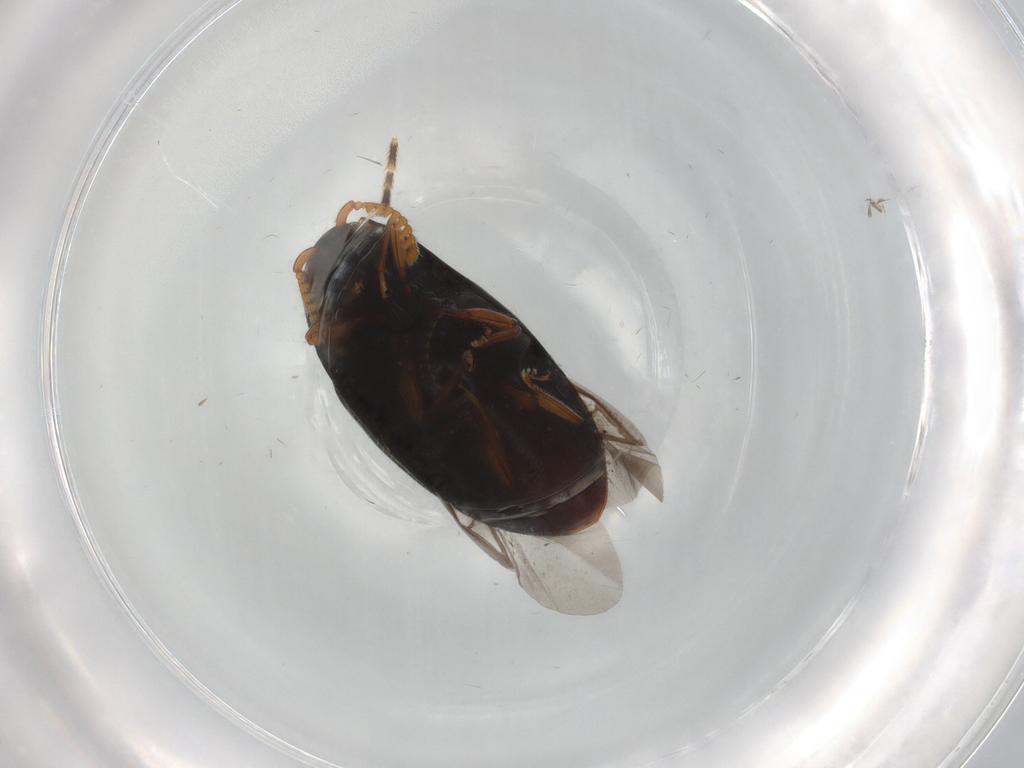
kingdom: Animalia
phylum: Arthropoda
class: Insecta
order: Coleoptera
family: Elateridae
